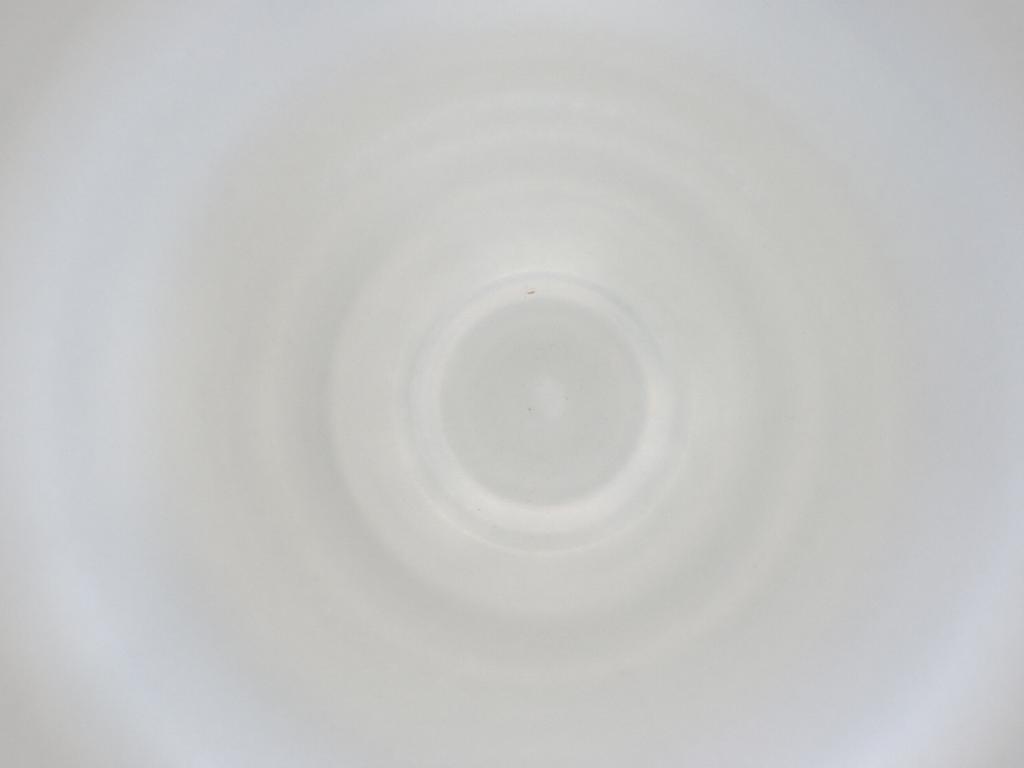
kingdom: Animalia
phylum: Arthropoda
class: Insecta
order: Diptera
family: Cecidomyiidae
